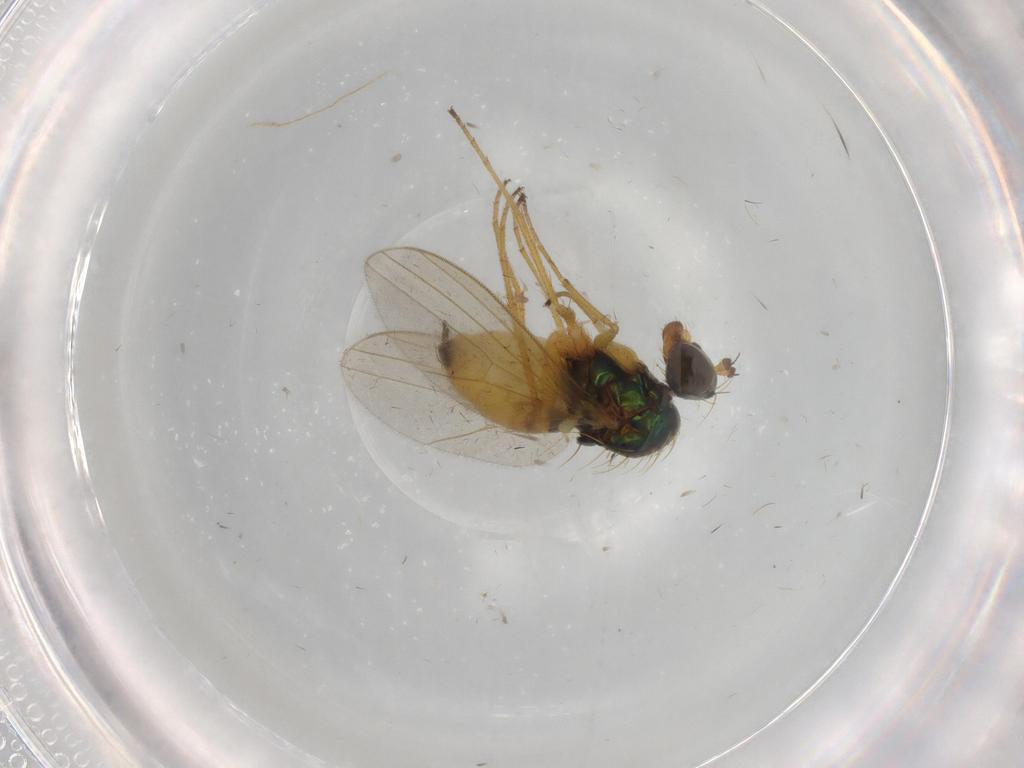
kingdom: Animalia
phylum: Arthropoda
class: Insecta
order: Diptera
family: Dolichopodidae
